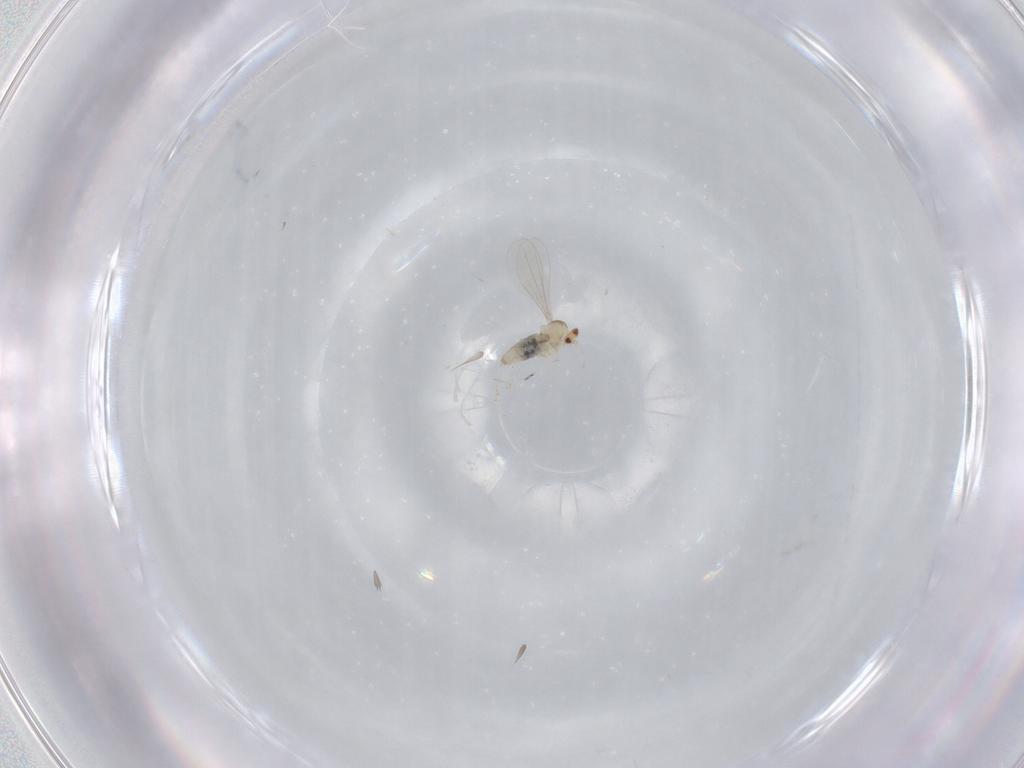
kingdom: Animalia
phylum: Arthropoda
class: Insecta
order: Diptera
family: Cecidomyiidae
